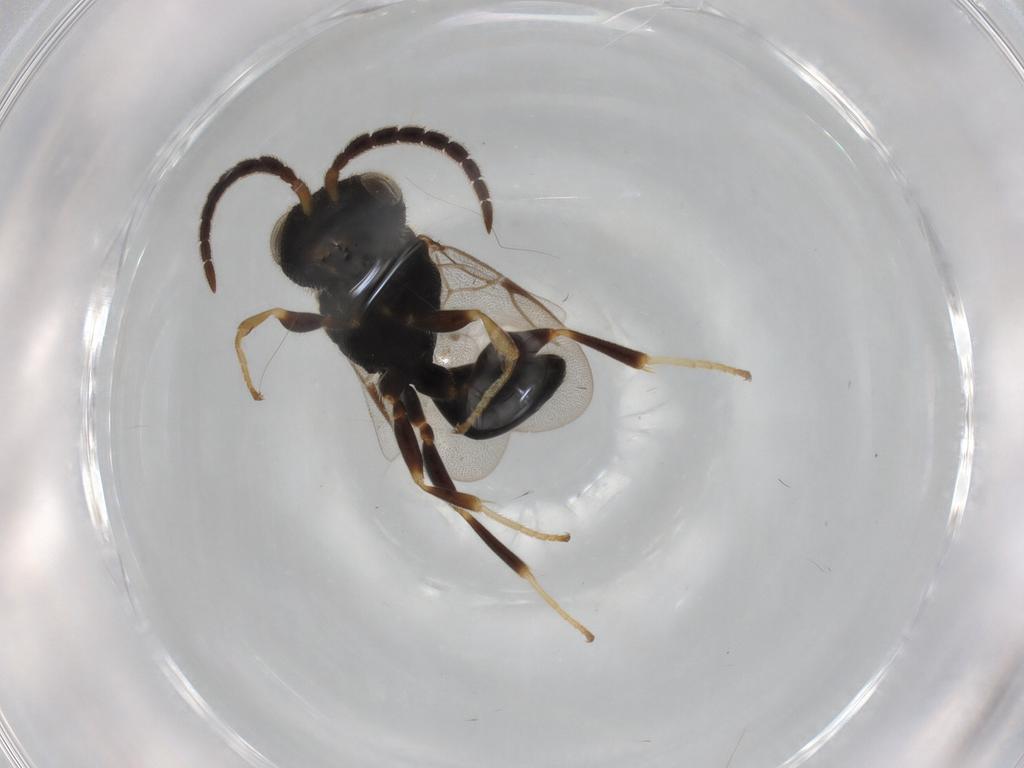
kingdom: Animalia
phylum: Arthropoda
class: Insecta
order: Hymenoptera
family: Dryinidae
